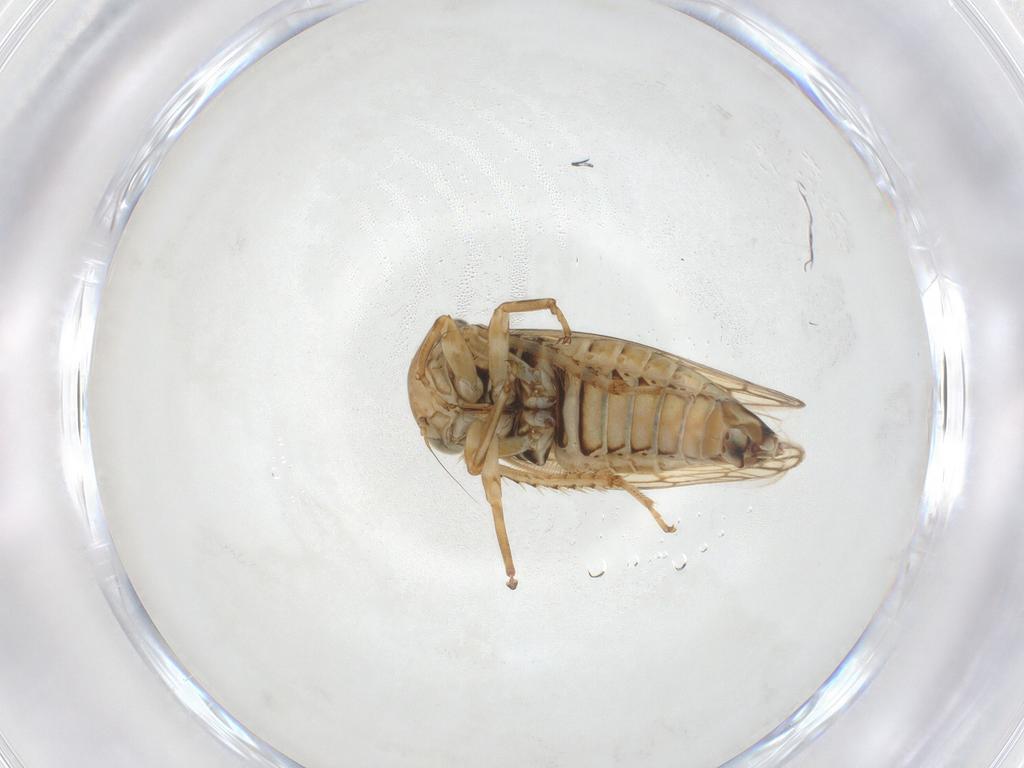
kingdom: Animalia
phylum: Arthropoda
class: Insecta
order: Hemiptera
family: Cicadellidae
